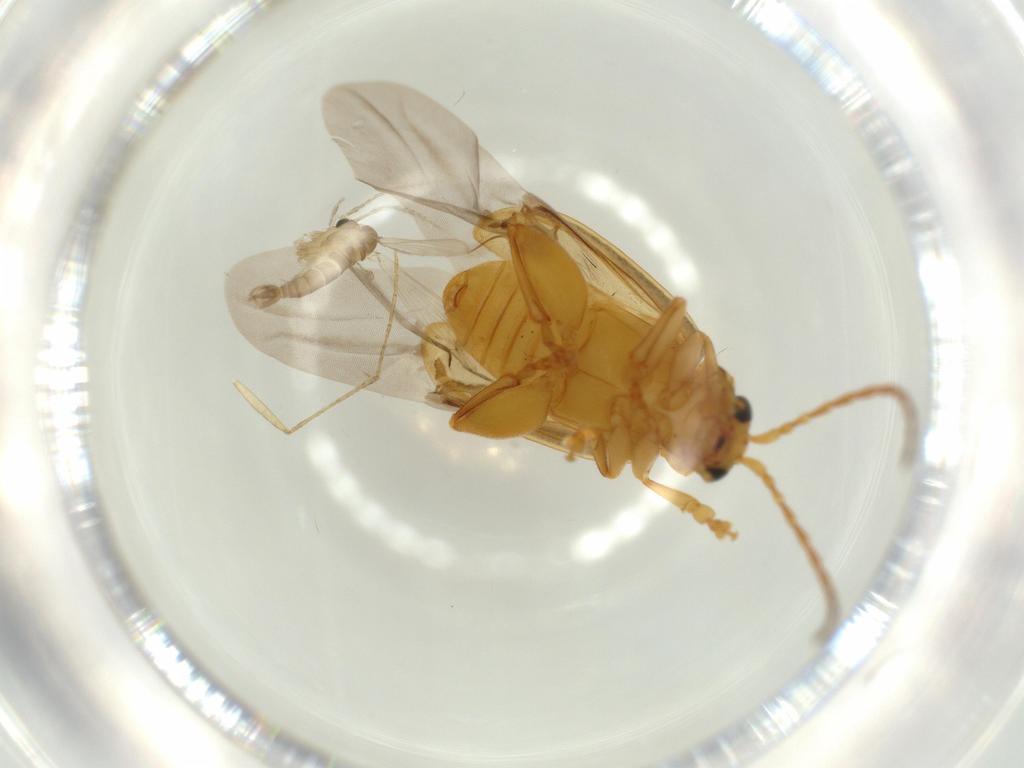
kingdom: Animalia
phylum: Arthropoda
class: Insecta
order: Coleoptera
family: Chrysomelidae
